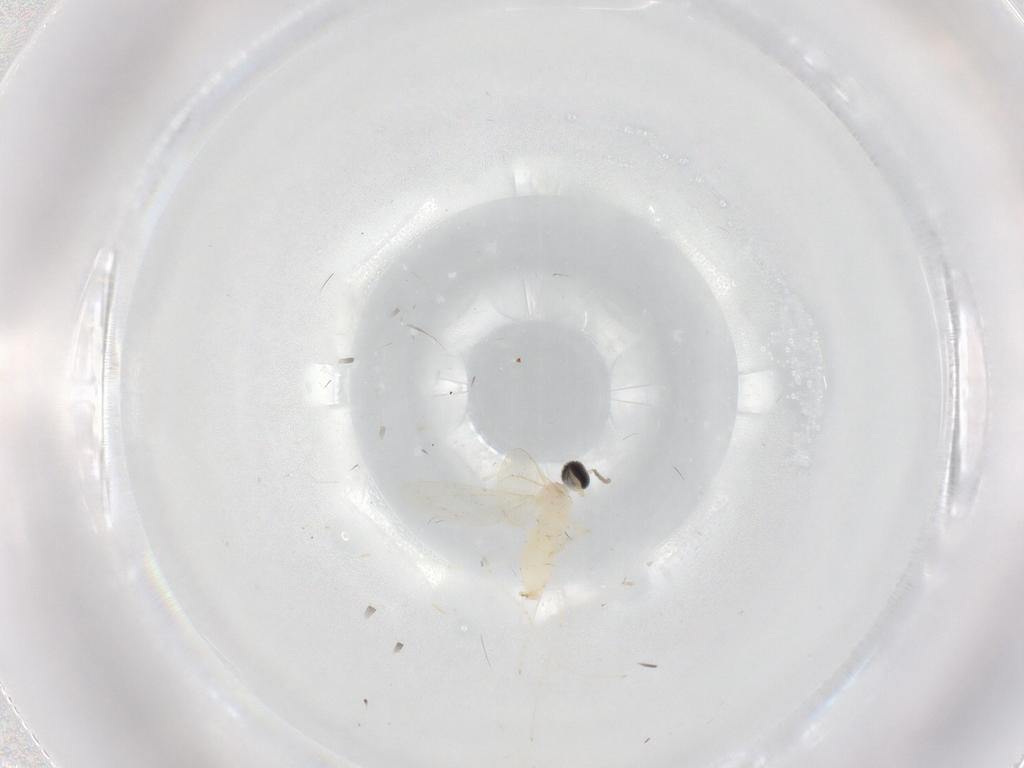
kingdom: Animalia
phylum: Arthropoda
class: Insecta
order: Diptera
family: Cecidomyiidae
